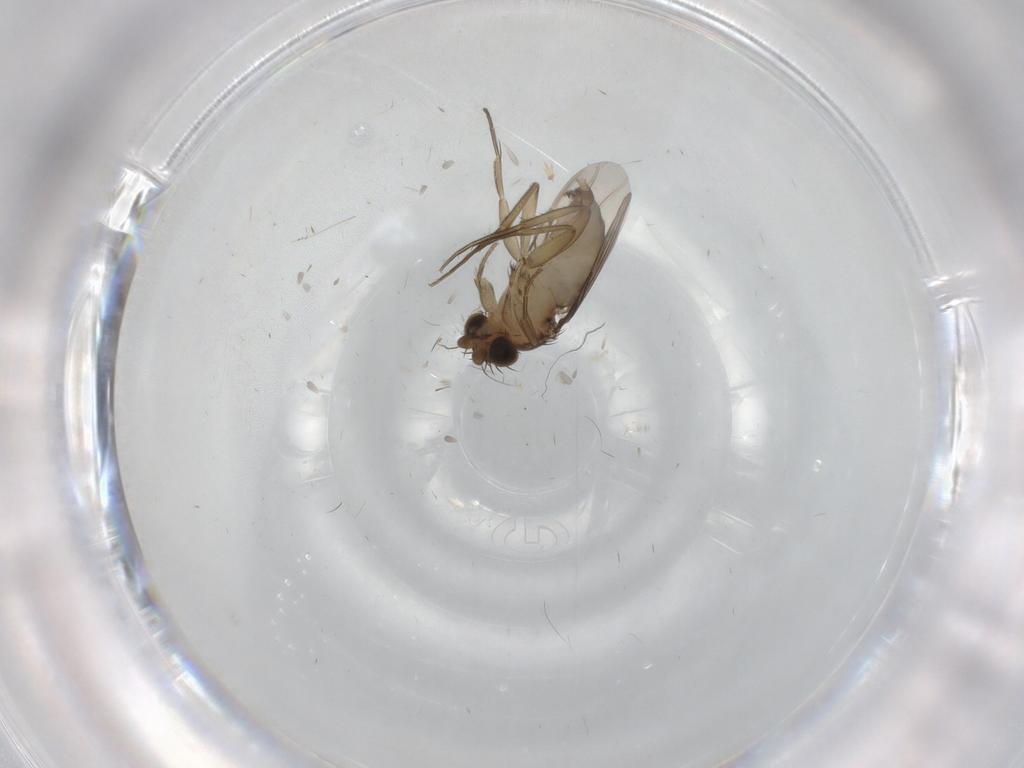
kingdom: Animalia
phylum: Arthropoda
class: Insecta
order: Diptera
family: Phoridae
